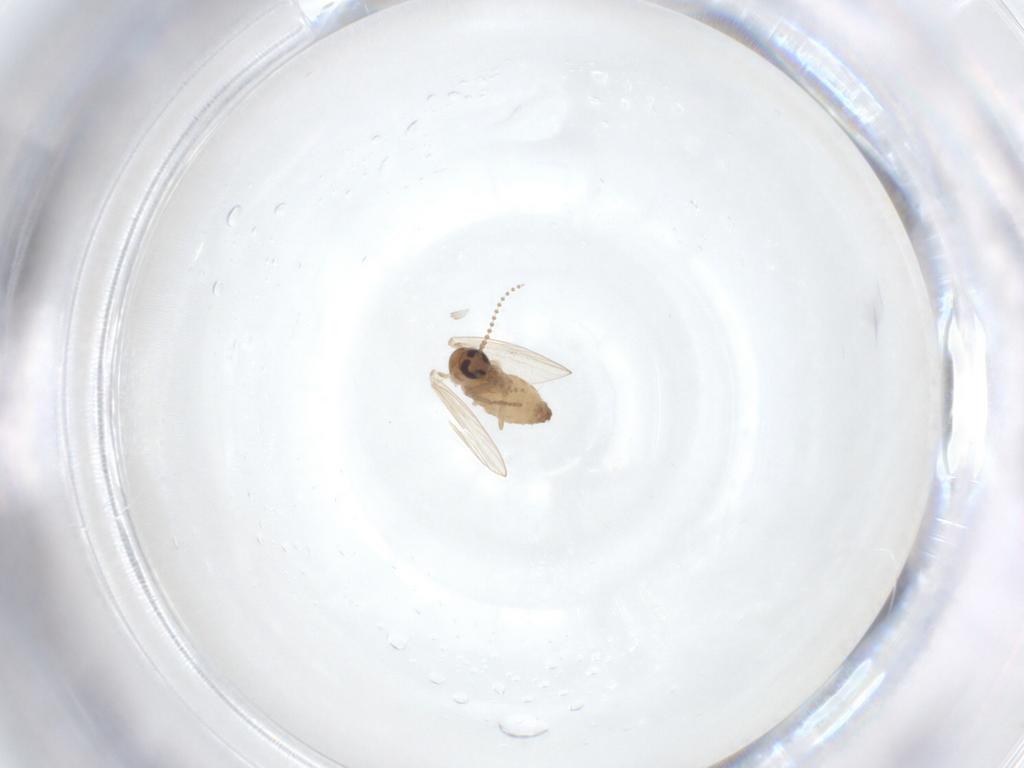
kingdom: Animalia
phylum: Arthropoda
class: Insecta
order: Diptera
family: Psychodidae
